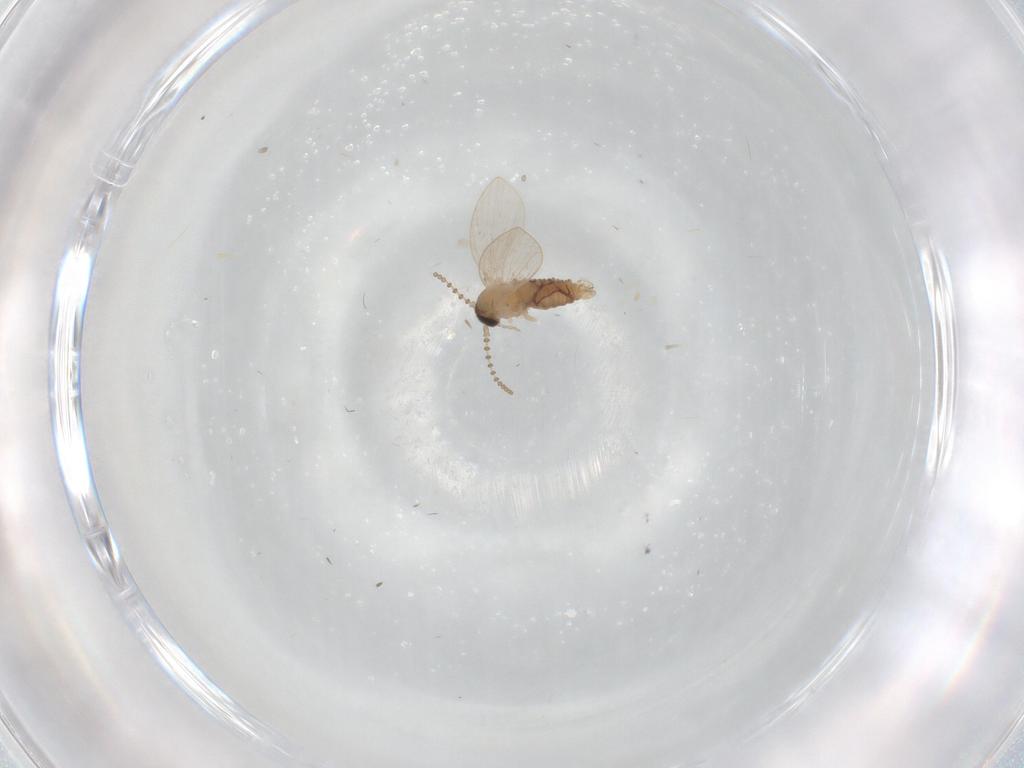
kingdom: Animalia
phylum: Arthropoda
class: Insecta
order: Diptera
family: Psychodidae
